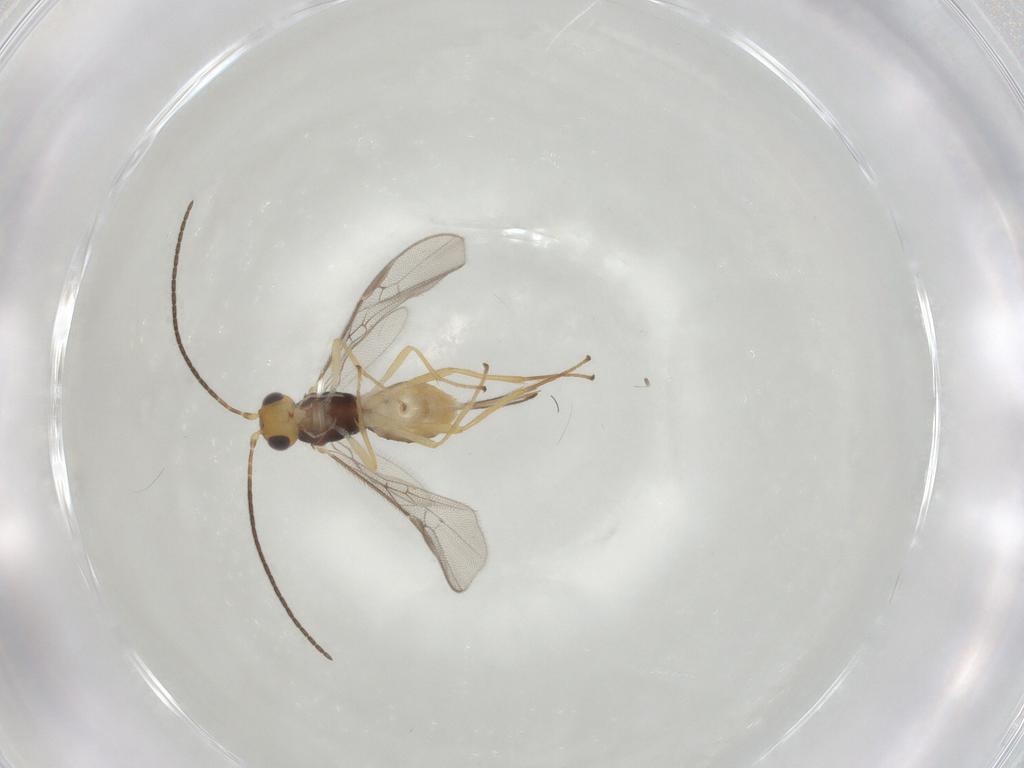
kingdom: Animalia
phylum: Arthropoda
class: Insecta
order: Hymenoptera
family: Braconidae
